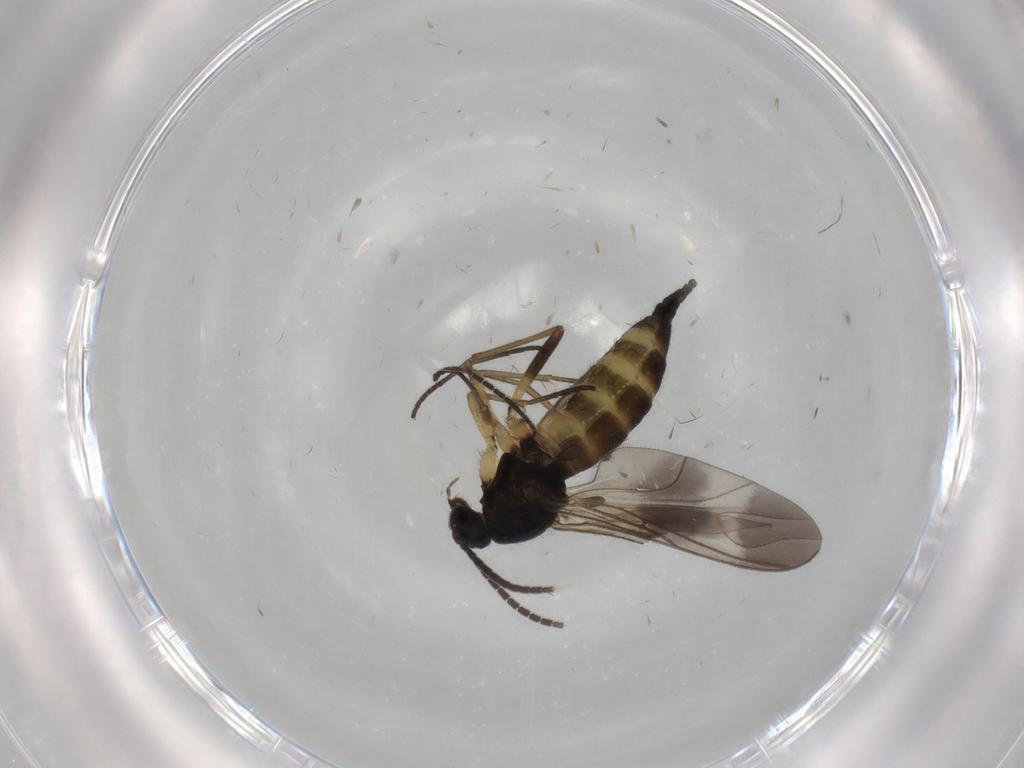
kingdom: Animalia
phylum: Arthropoda
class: Insecta
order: Diptera
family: Sciaridae
